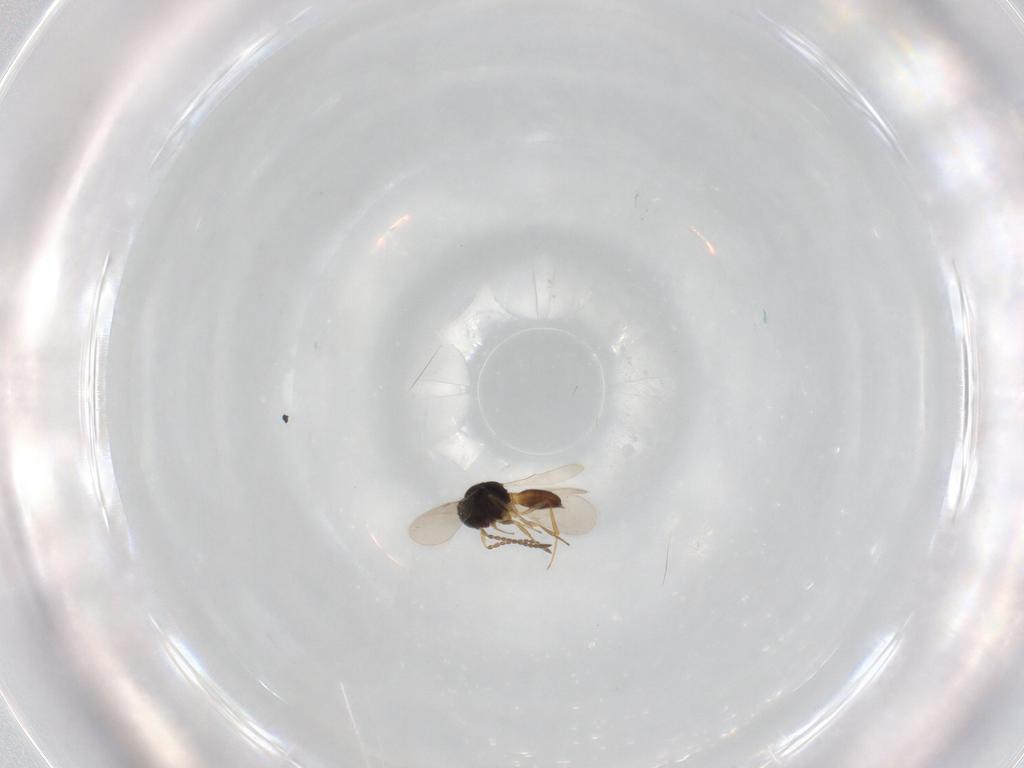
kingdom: Animalia
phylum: Arthropoda
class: Insecta
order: Hymenoptera
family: Scelionidae
